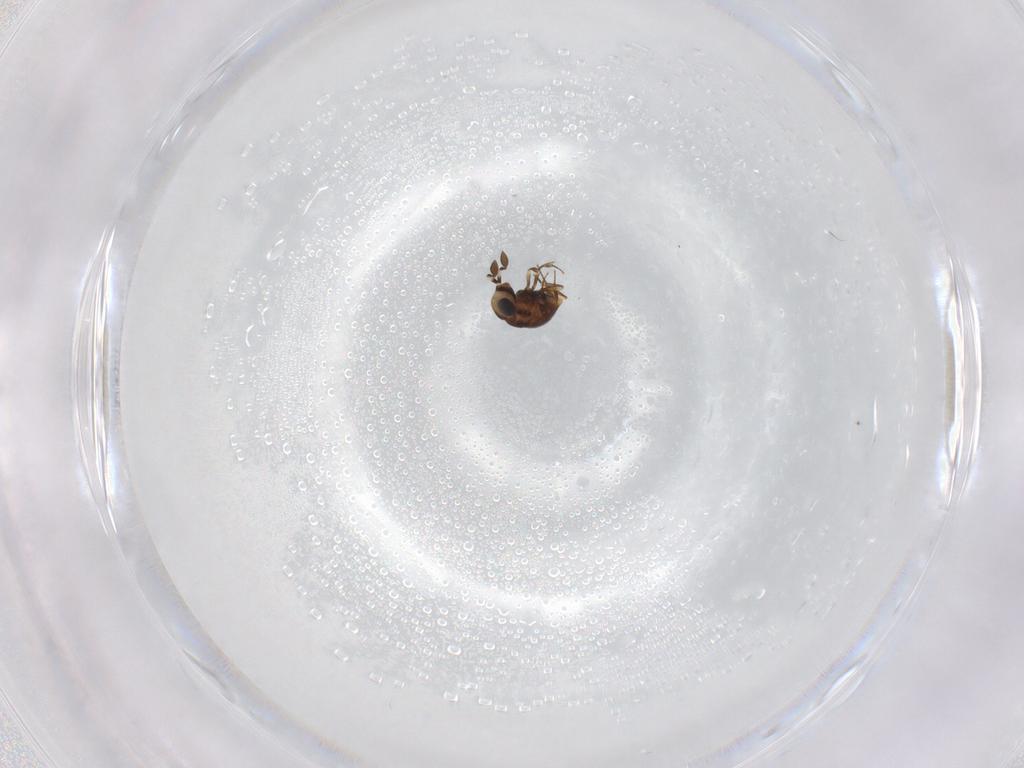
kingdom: Animalia
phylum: Arthropoda
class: Insecta
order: Hymenoptera
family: Scelionidae
